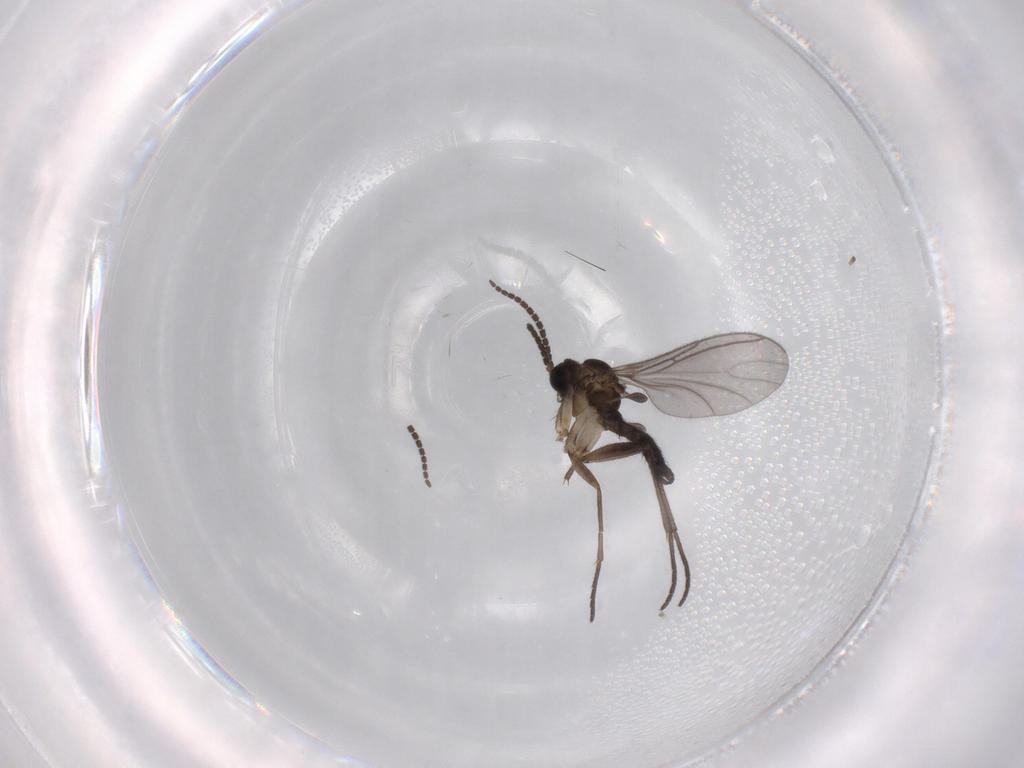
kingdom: Animalia
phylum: Arthropoda
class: Insecta
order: Diptera
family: Sciaridae
